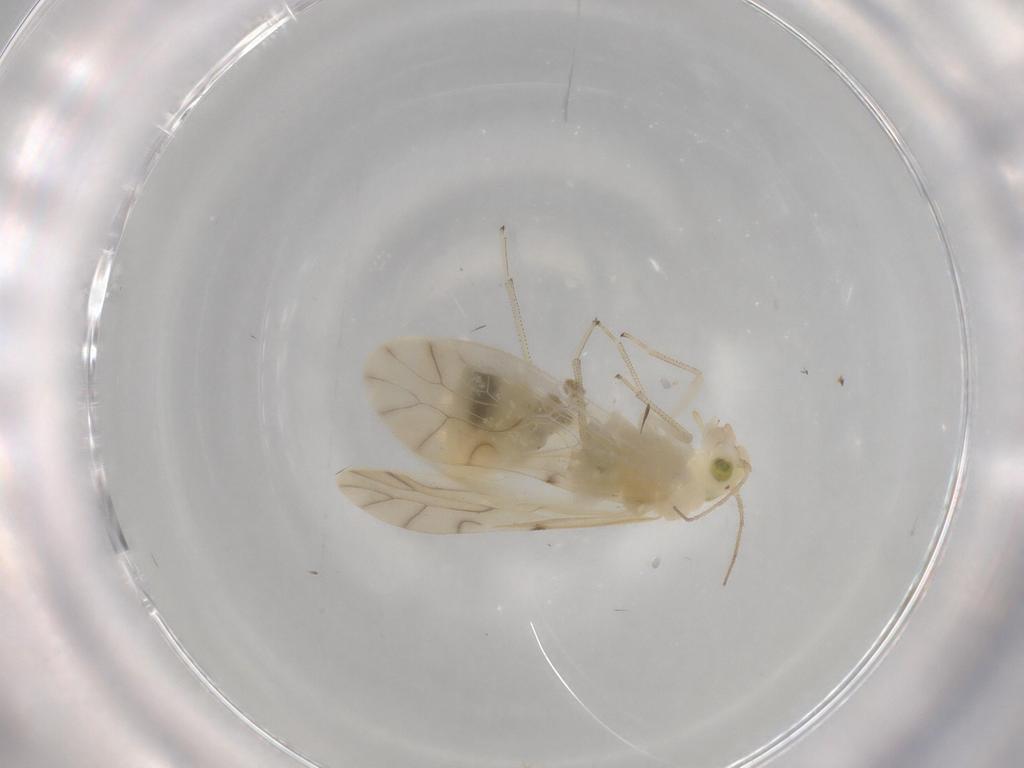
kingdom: Animalia
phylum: Arthropoda
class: Insecta
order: Psocodea
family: Caeciliusidae
